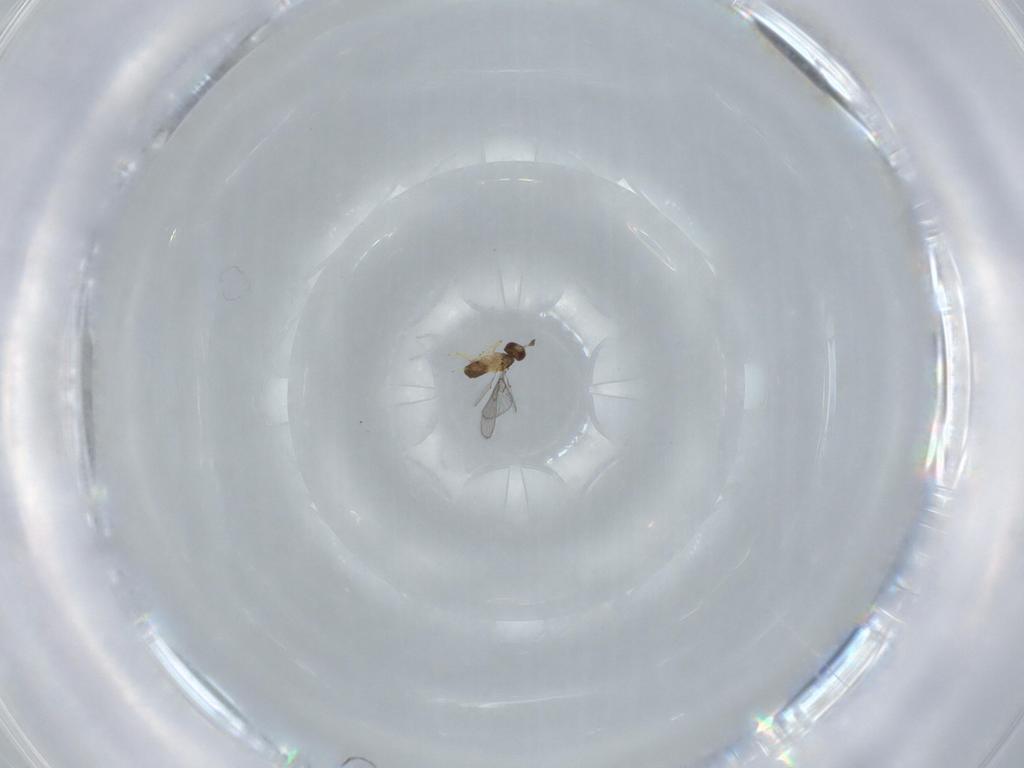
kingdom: Animalia
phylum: Arthropoda
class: Insecta
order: Hymenoptera
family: Trichogrammatidae
